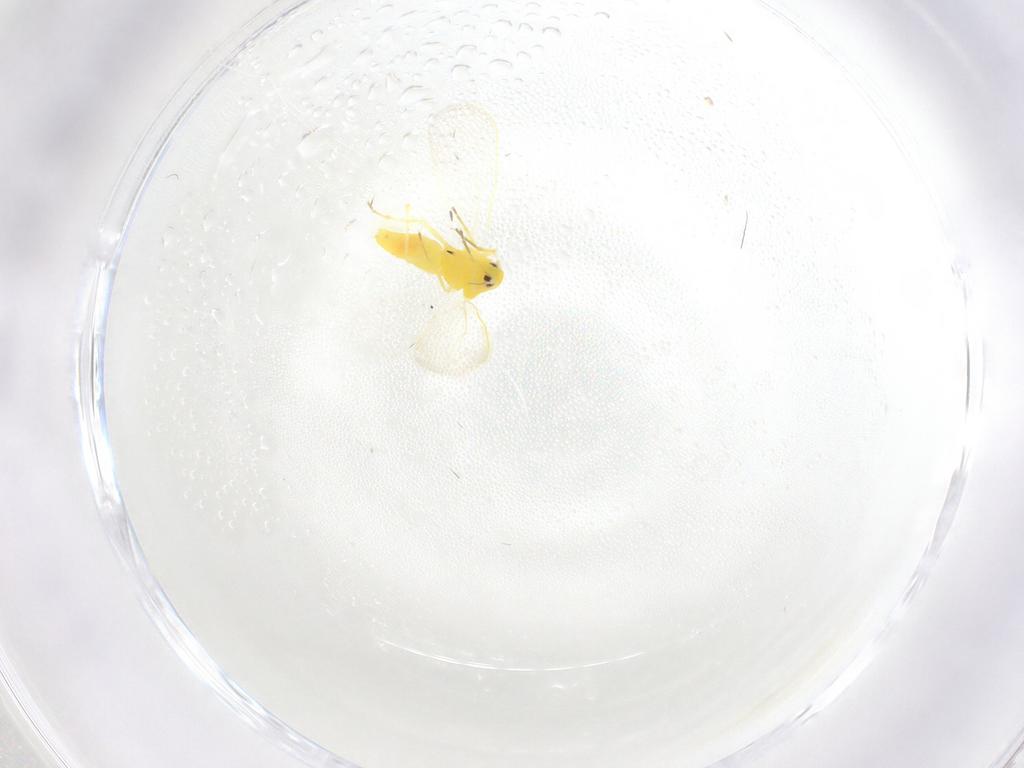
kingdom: Animalia
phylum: Arthropoda
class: Insecta
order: Hemiptera
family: Aleyrodidae
